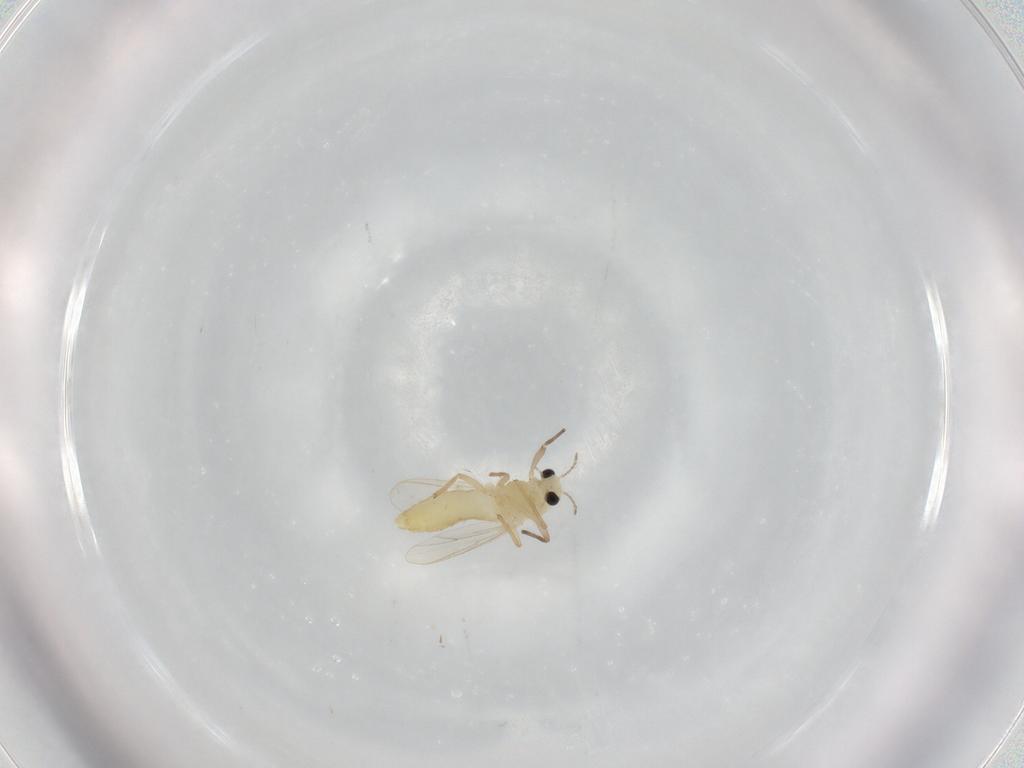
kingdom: Animalia
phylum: Arthropoda
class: Insecta
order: Diptera
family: Chironomidae
